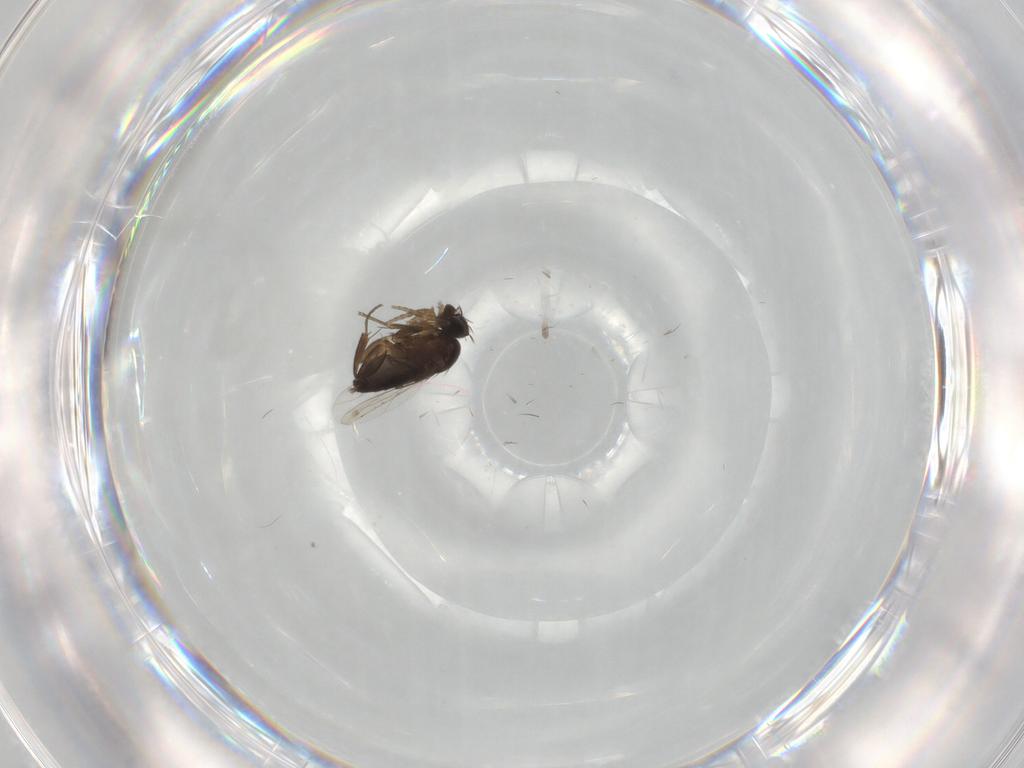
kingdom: Animalia
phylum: Arthropoda
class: Insecta
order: Diptera
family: Phoridae
